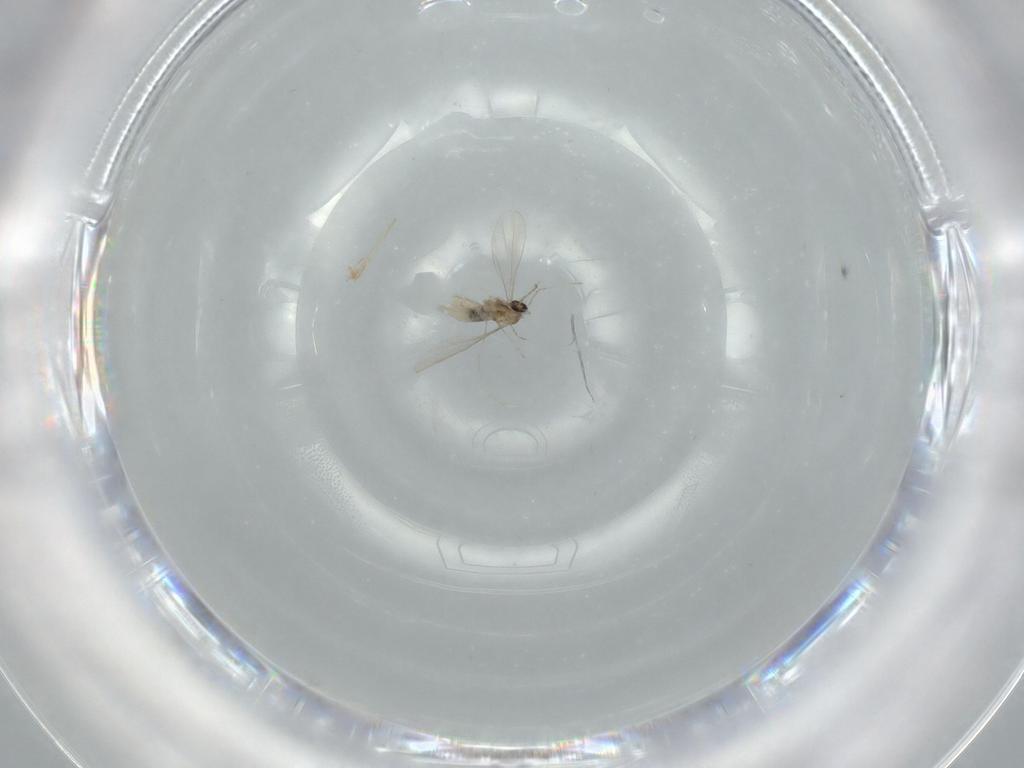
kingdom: Animalia
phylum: Arthropoda
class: Insecta
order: Diptera
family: Cecidomyiidae
